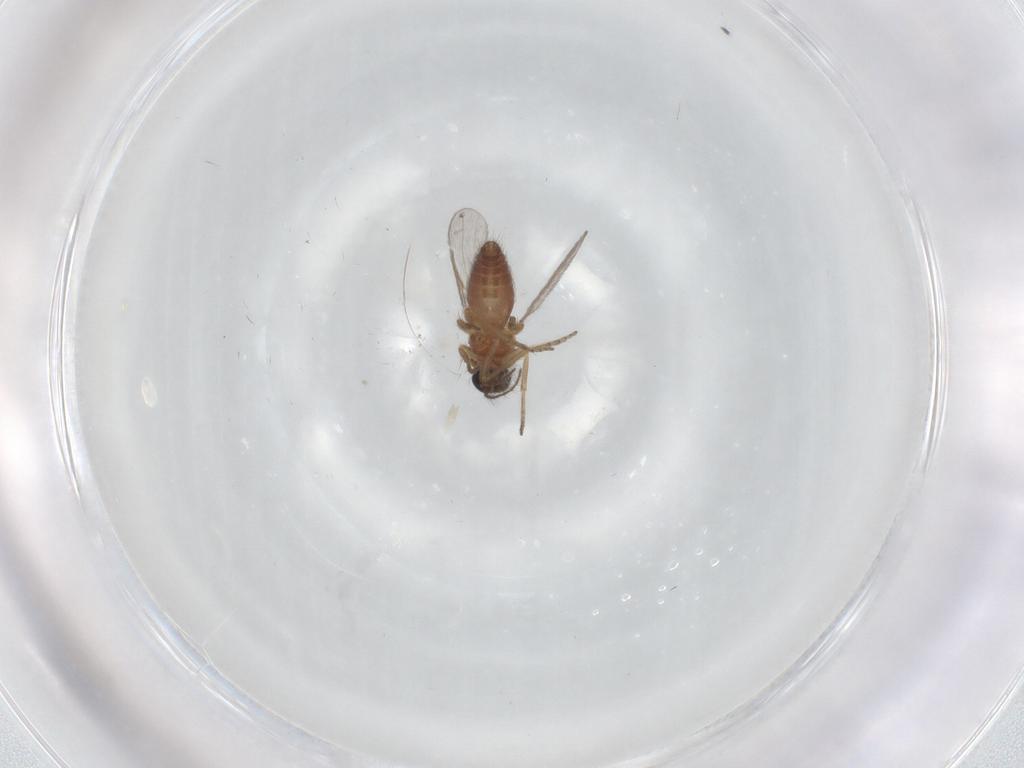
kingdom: Animalia
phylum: Arthropoda
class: Insecta
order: Diptera
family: Ceratopogonidae
